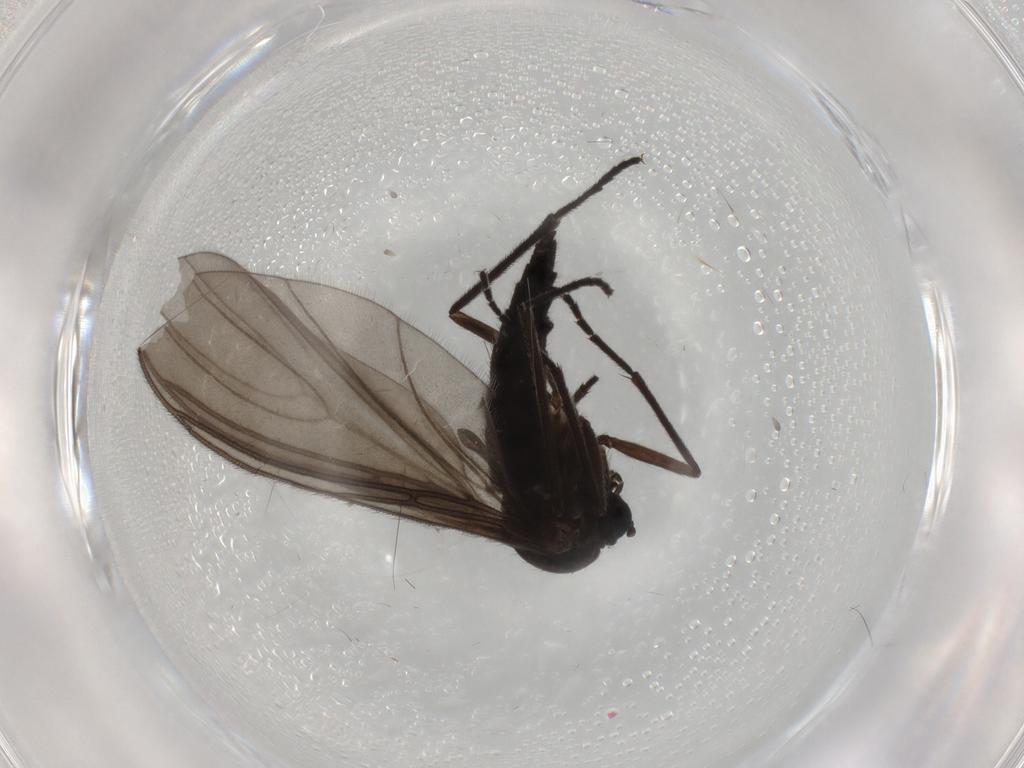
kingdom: Animalia
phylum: Arthropoda
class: Insecta
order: Diptera
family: Sciaridae
